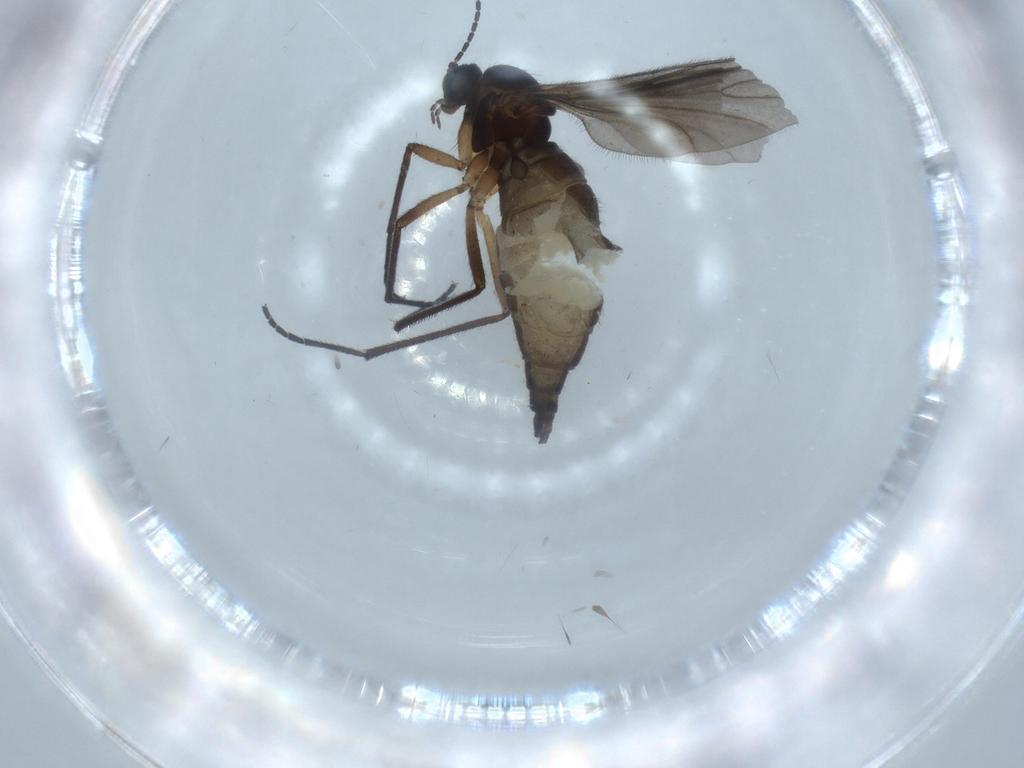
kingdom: Animalia
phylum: Arthropoda
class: Insecta
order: Diptera
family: Sciaridae
